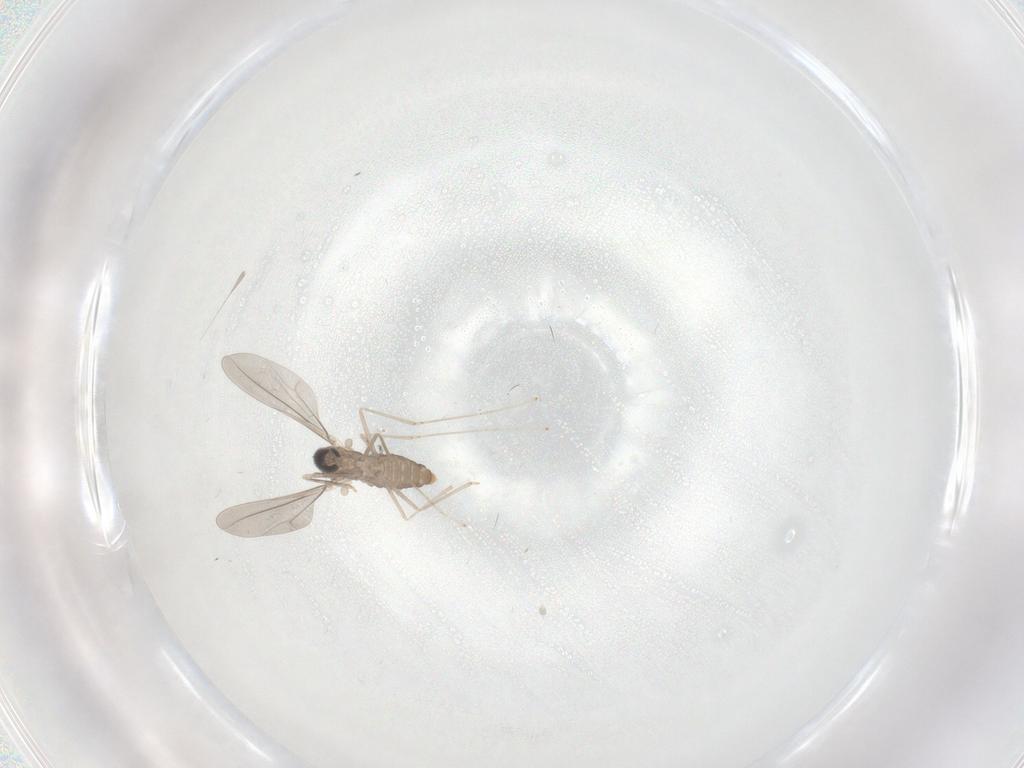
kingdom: Animalia
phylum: Arthropoda
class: Insecta
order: Diptera
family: Cecidomyiidae
